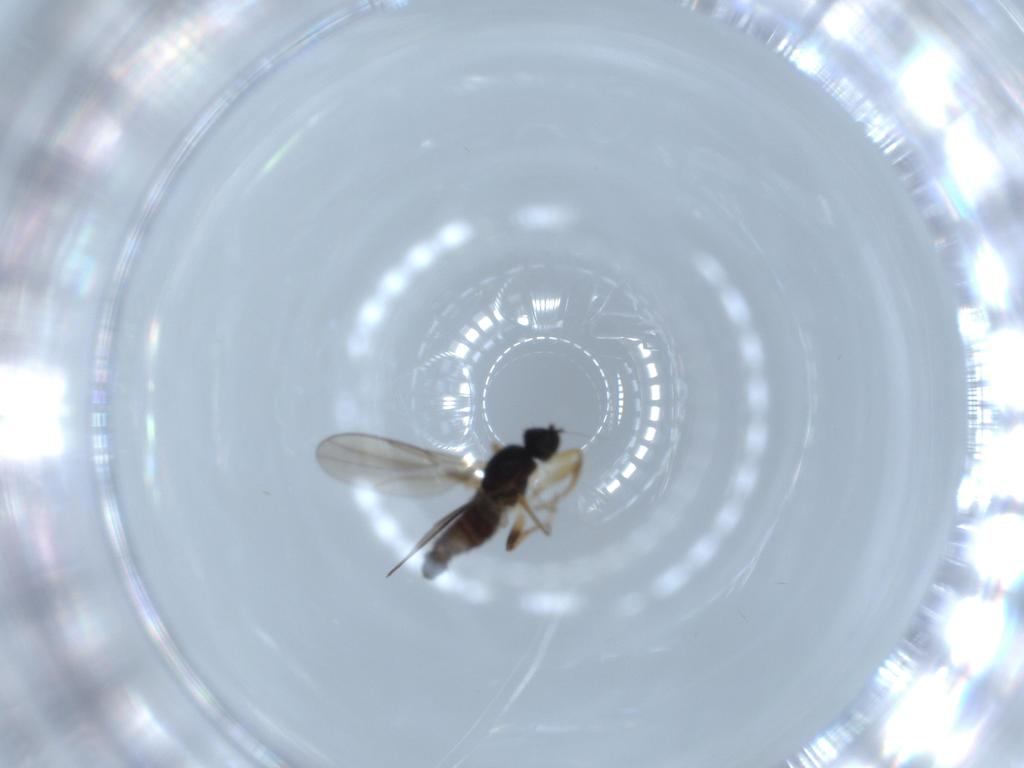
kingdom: Animalia
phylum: Arthropoda
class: Insecta
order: Diptera
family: Hybotidae
